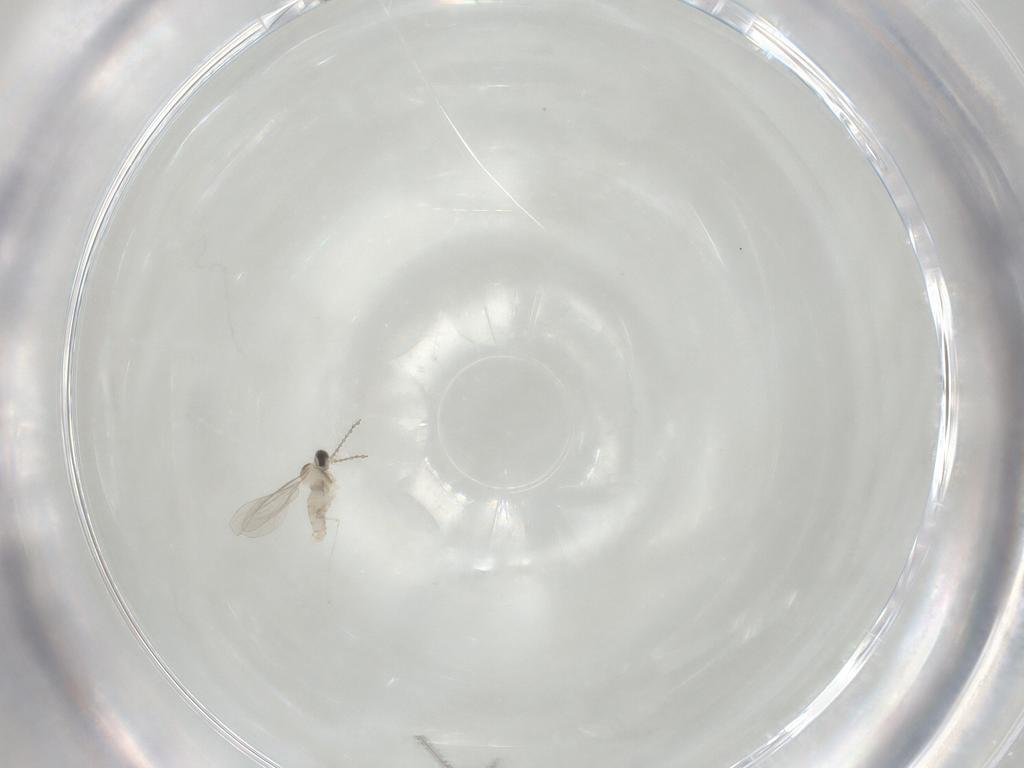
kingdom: Animalia
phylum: Arthropoda
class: Insecta
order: Diptera
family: Cecidomyiidae
